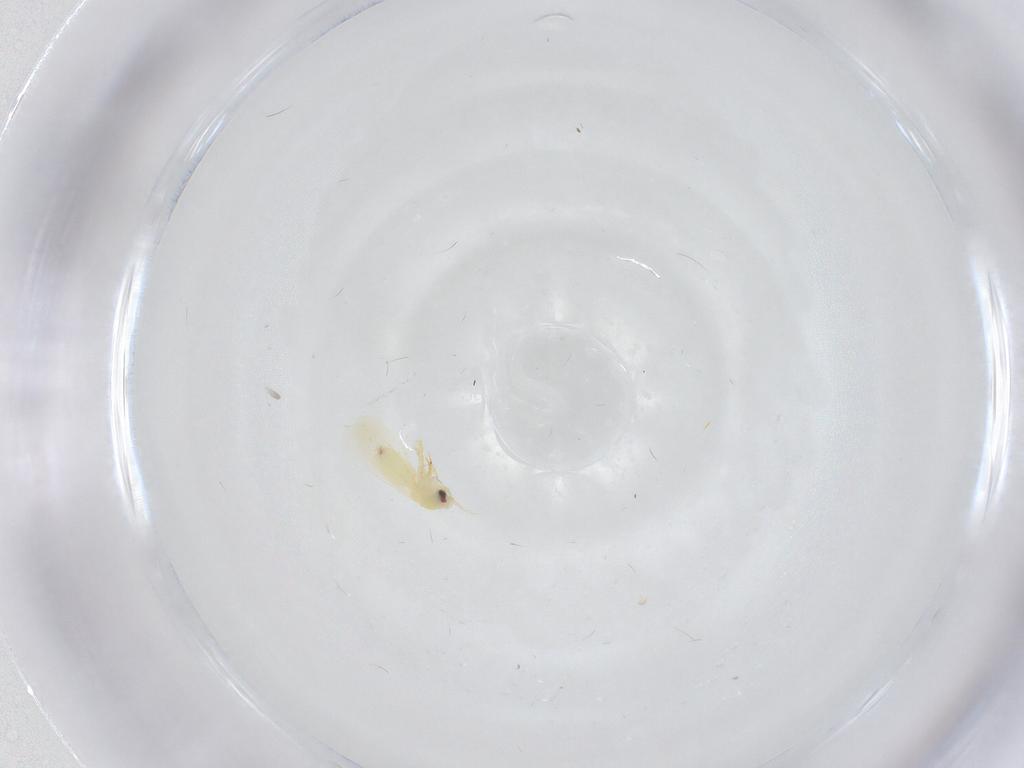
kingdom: Animalia
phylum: Arthropoda
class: Insecta
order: Hemiptera
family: Aleyrodidae
